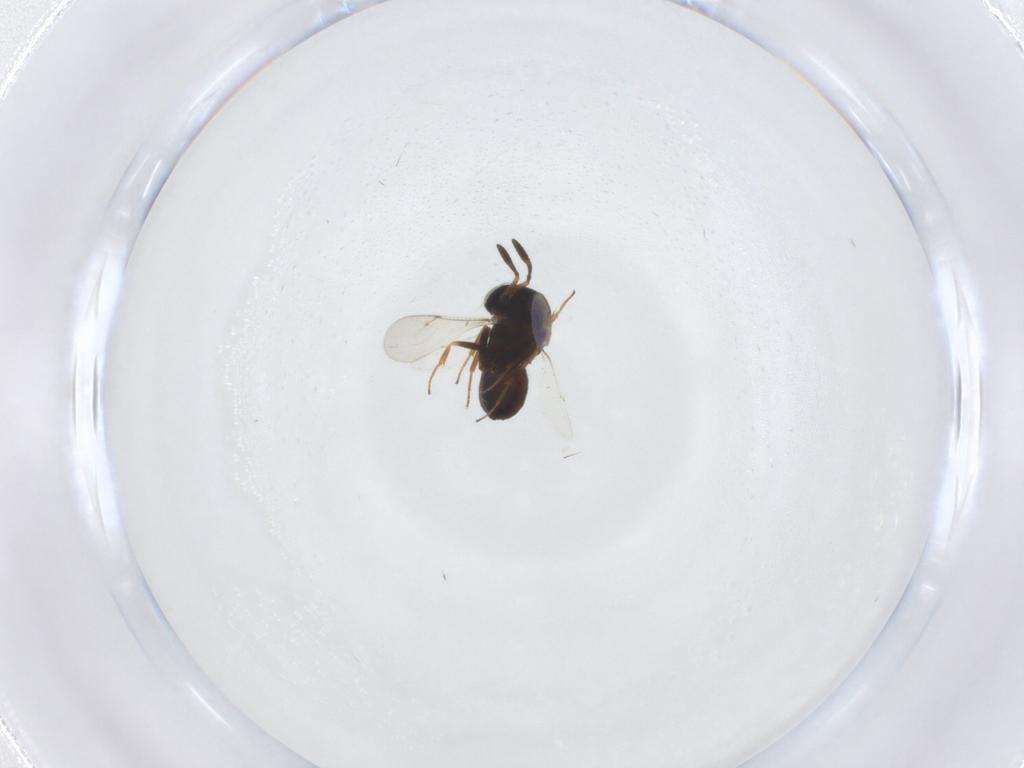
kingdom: Animalia
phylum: Arthropoda
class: Insecta
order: Hymenoptera
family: Scelionidae
